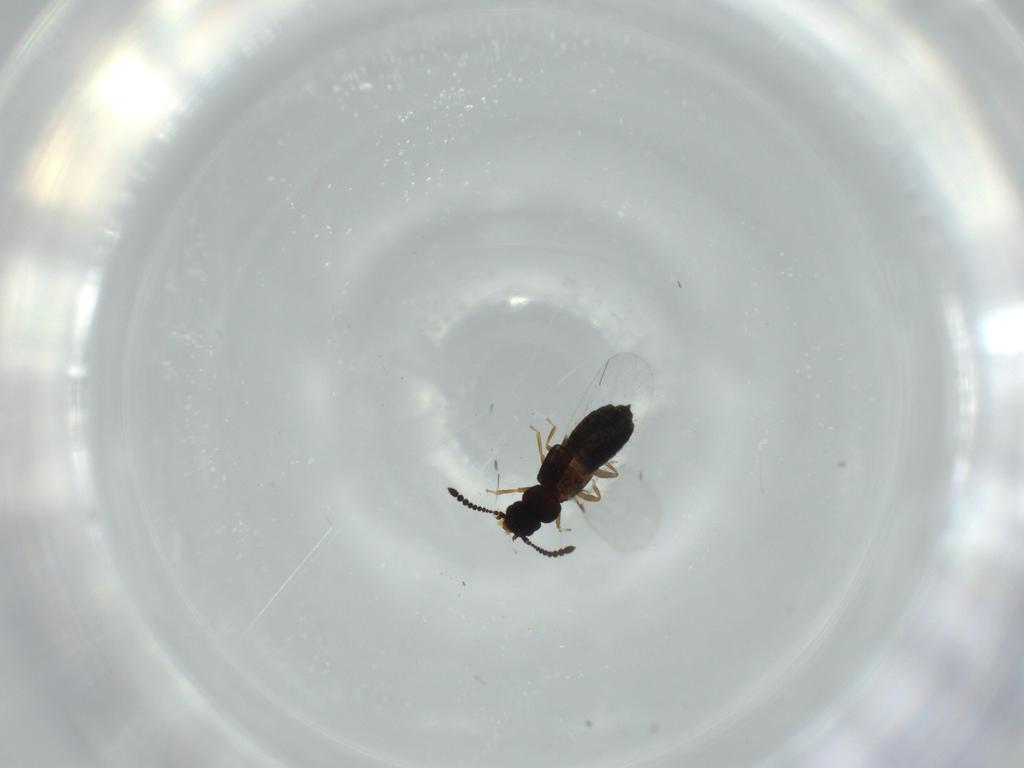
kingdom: Animalia
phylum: Arthropoda
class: Insecta
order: Coleoptera
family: Staphylinidae
